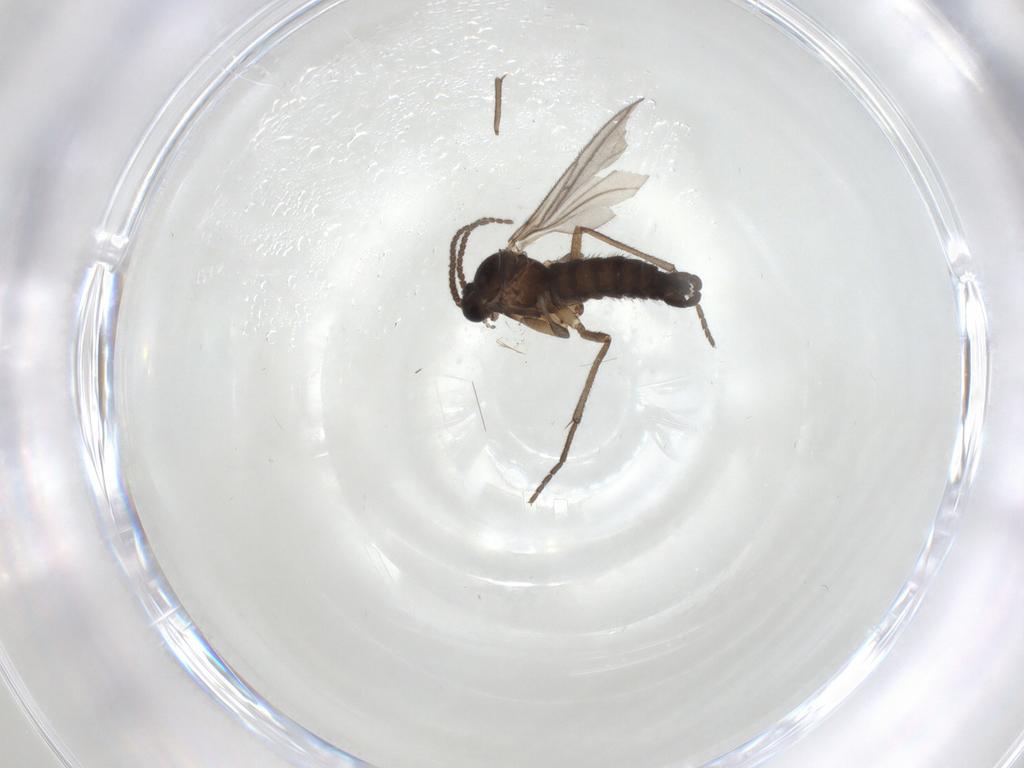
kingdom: Animalia
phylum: Arthropoda
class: Insecta
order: Diptera
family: Sciaridae
